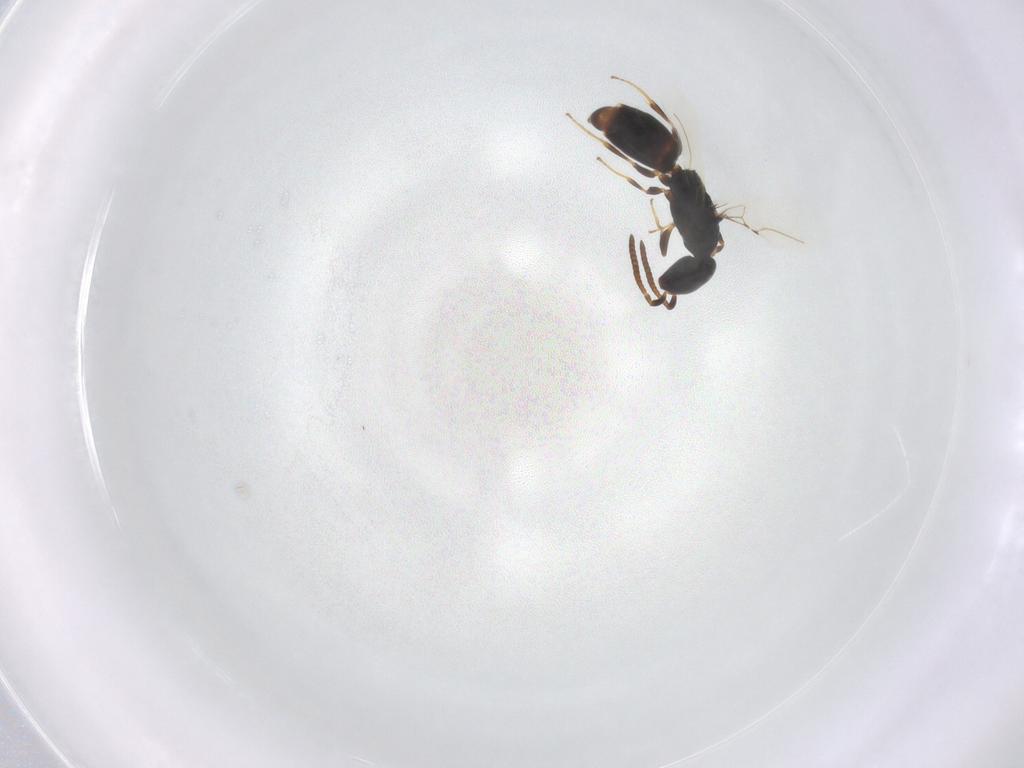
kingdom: Animalia
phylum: Arthropoda
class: Insecta
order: Hymenoptera
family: Bethylidae
